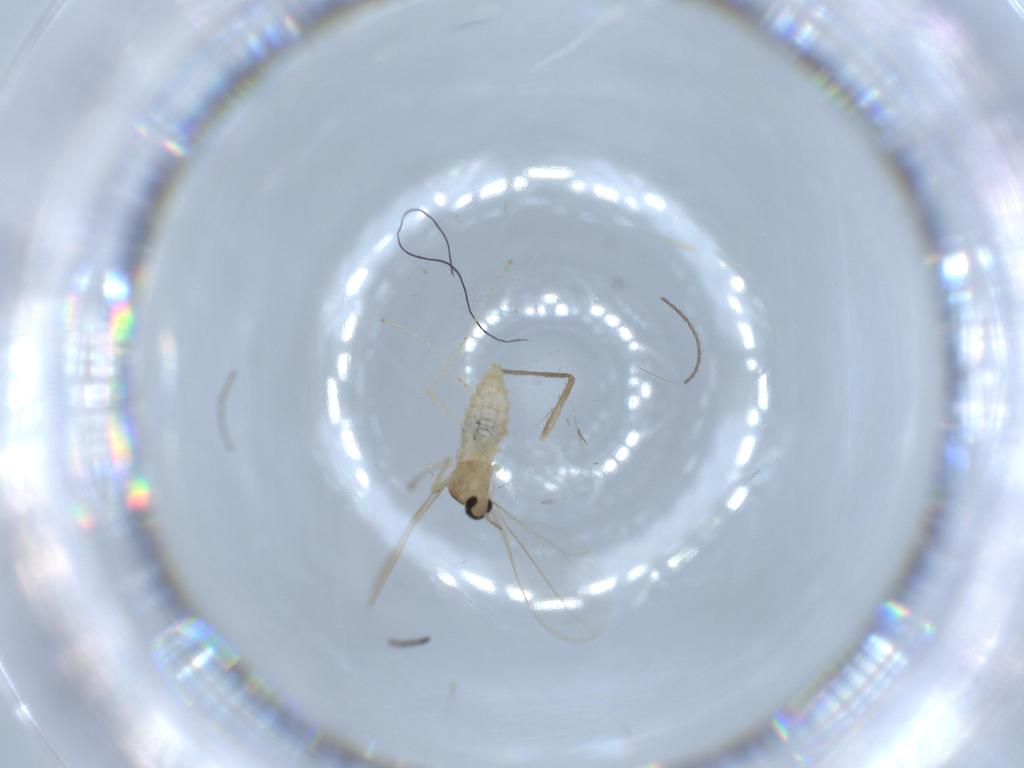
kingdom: Animalia
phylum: Arthropoda
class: Insecta
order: Diptera
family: Cecidomyiidae
